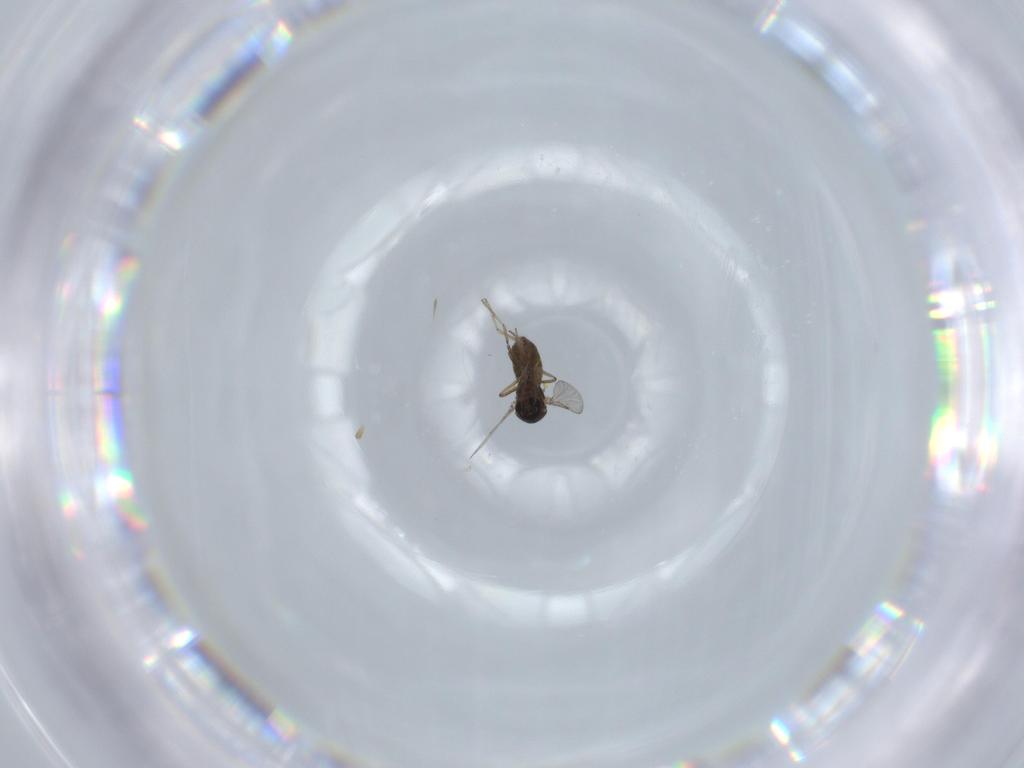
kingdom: Animalia
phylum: Arthropoda
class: Insecta
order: Diptera
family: Ceratopogonidae
